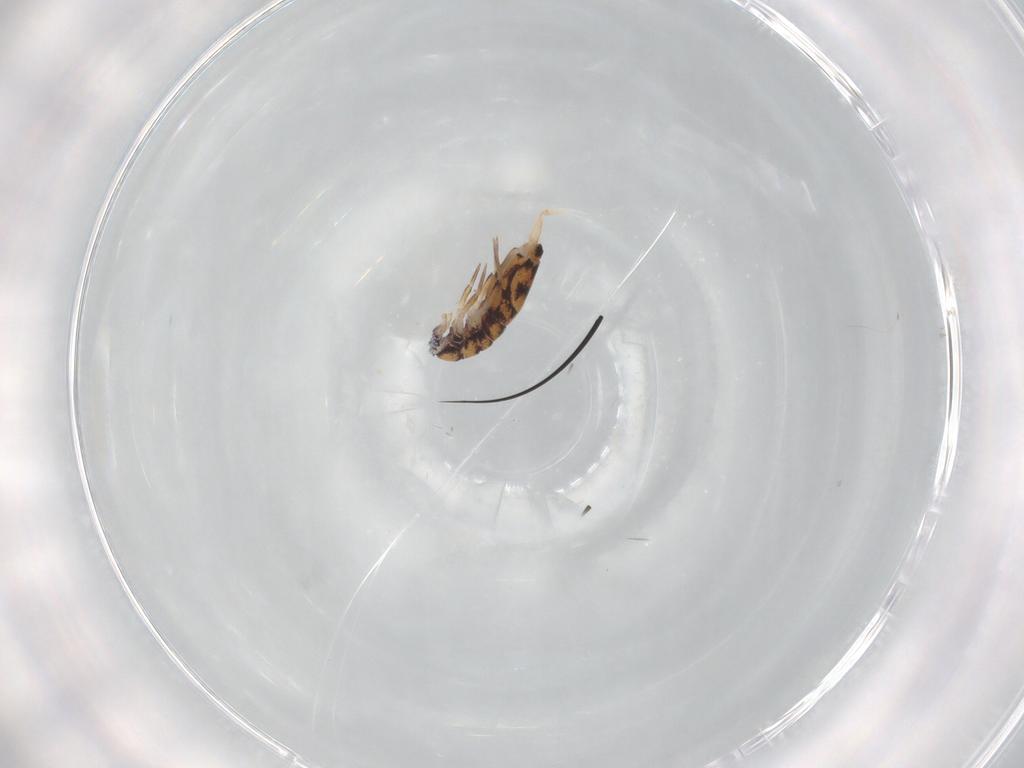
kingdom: Animalia
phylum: Arthropoda
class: Collembola
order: Entomobryomorpha
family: Entomobryidae
